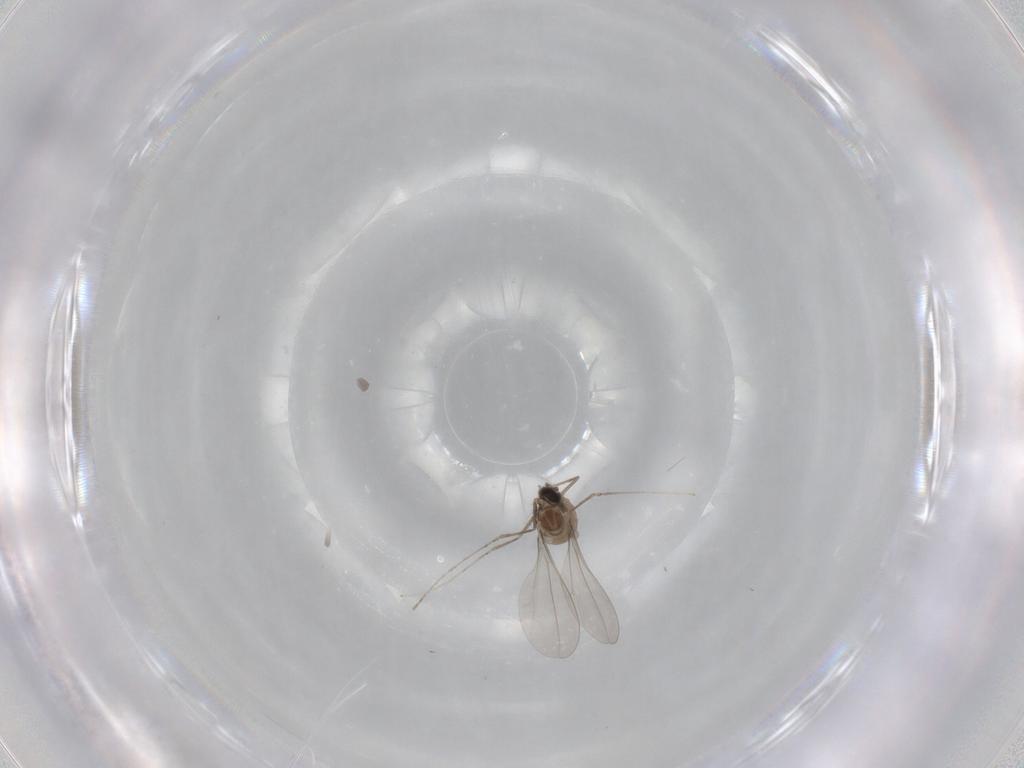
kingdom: Animalia
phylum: Arthropoda
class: Insecta
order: Diptera
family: Cecidomyiidae
